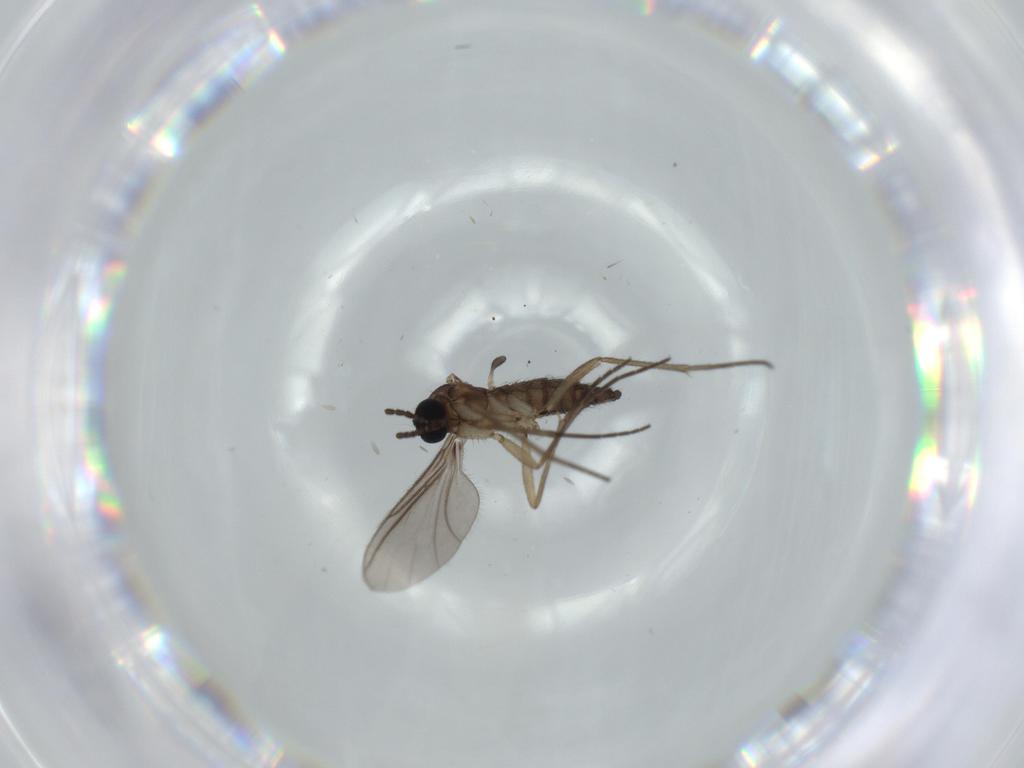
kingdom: Animalia
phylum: Arthropoda
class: Insecta
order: Diptera
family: Sciaridae
